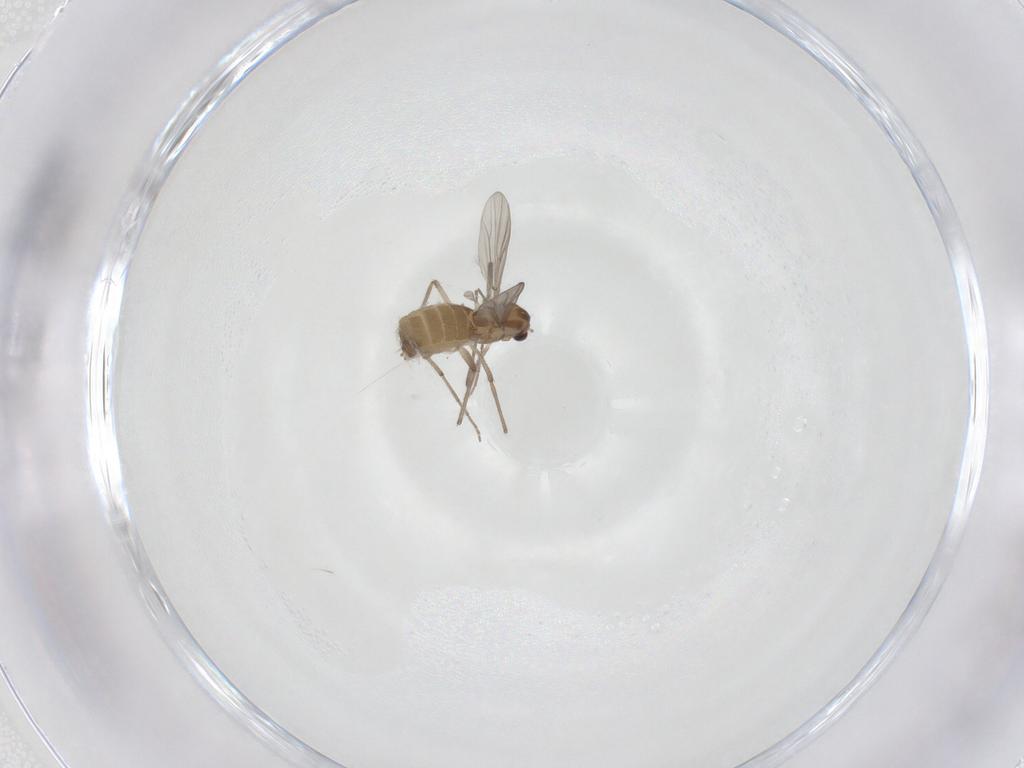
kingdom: Animalia
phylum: Arthropoda
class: Insecta
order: Diptera
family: Chironomidae
